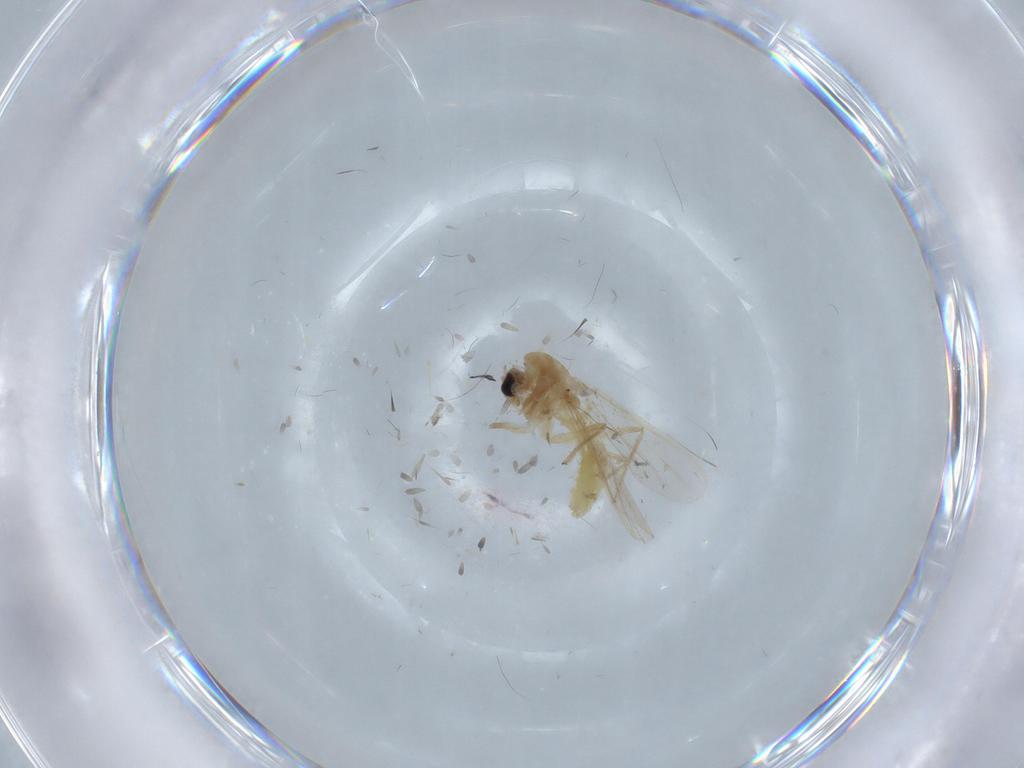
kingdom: Animalia
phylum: Arthropoda
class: Insecta
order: Diptera
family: Chironomidae
